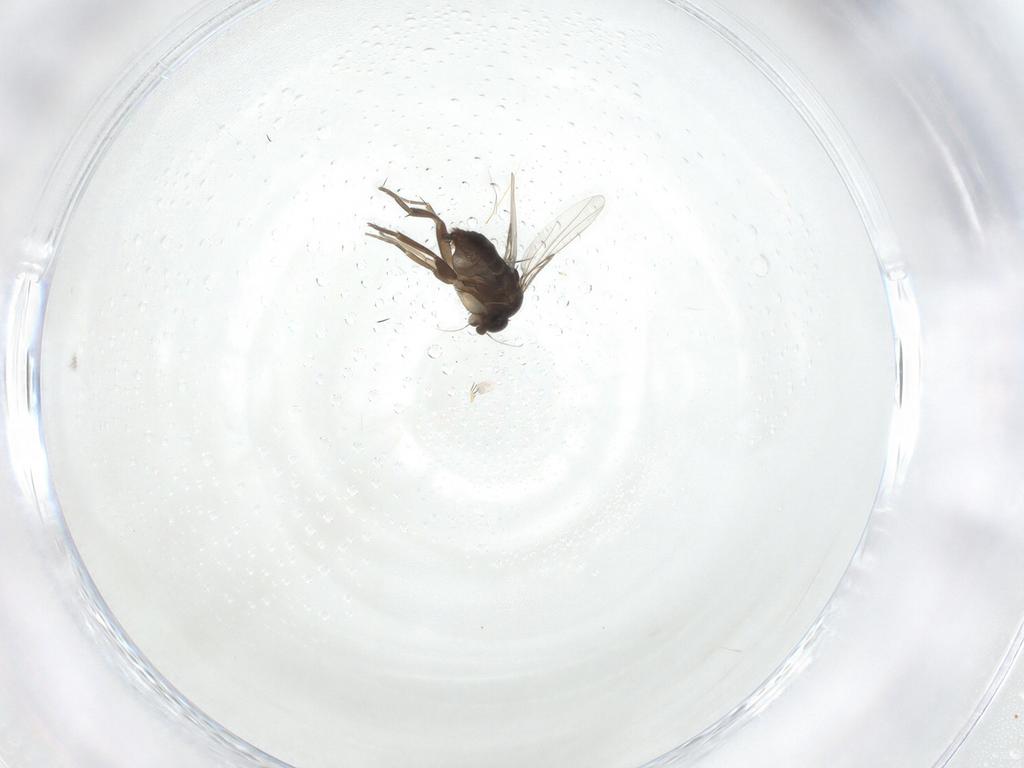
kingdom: Animalia
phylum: Arthropoda
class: Insecta
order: Diptera
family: Phoridae
